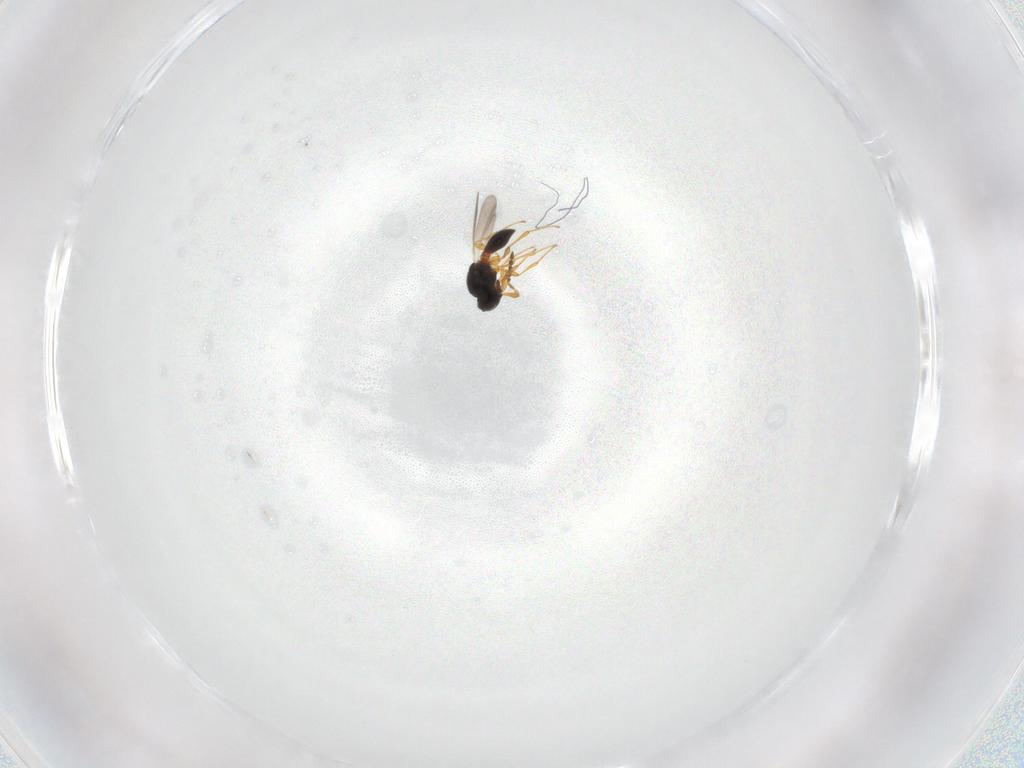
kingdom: Animalia
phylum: Arthropoda
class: Insecta
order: Hymenoptera
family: Platygastridae
